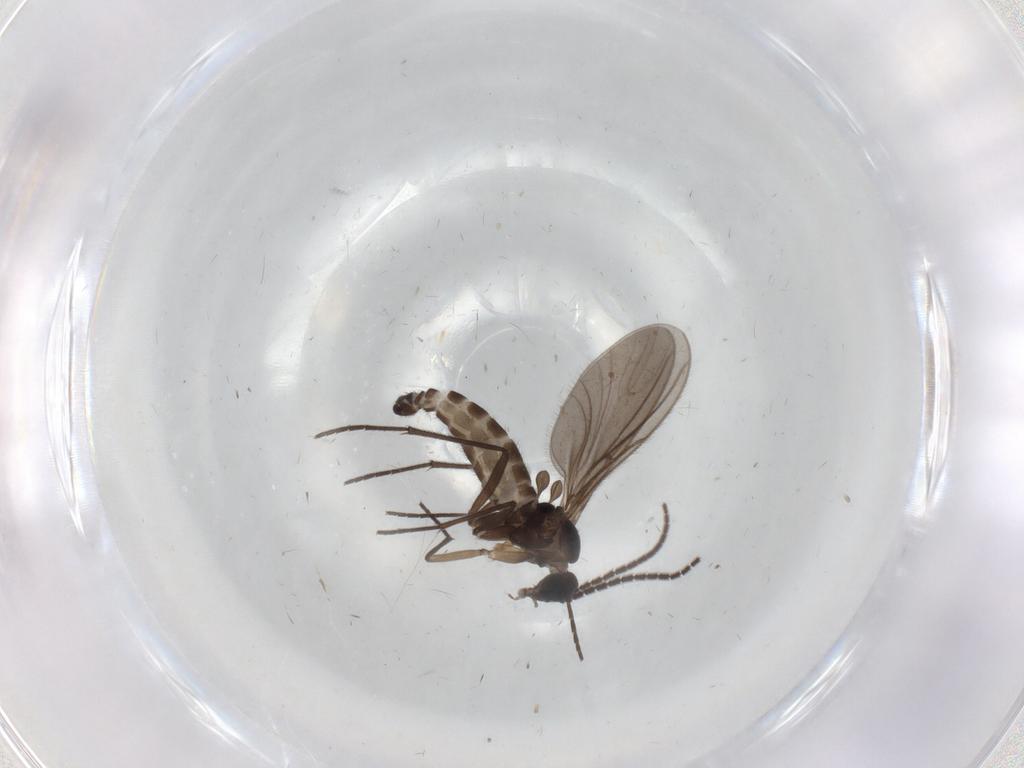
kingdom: Animalia
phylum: Arthropoda
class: Insecta
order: Diptera
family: Sciaridae
